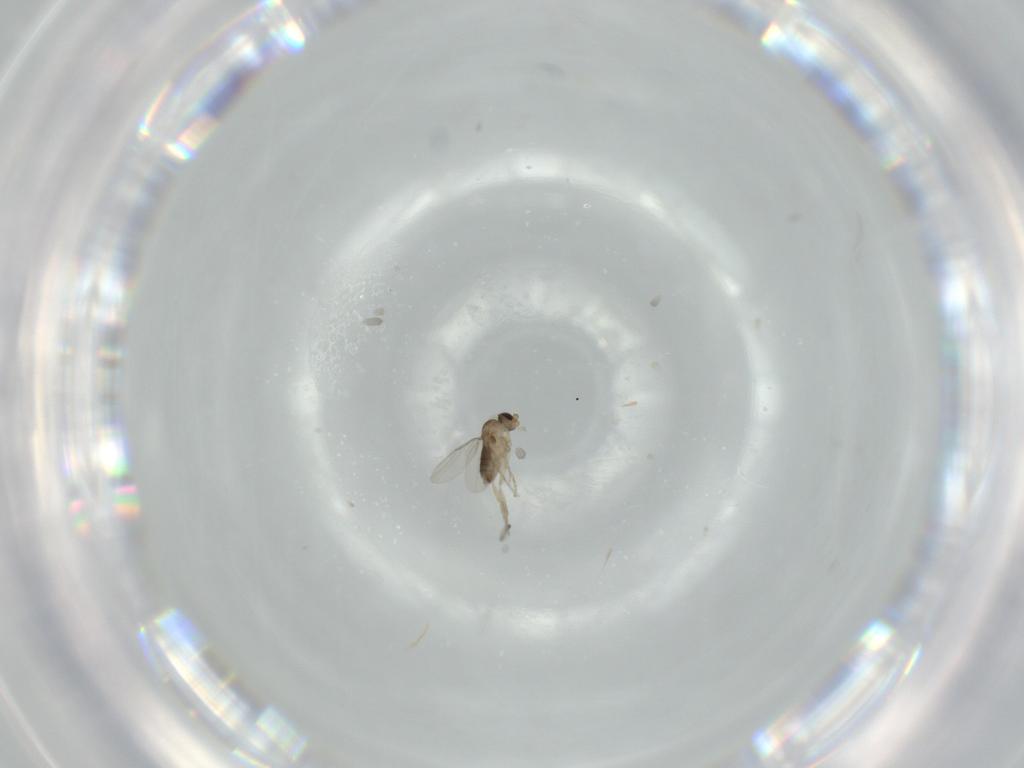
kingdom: Animalia
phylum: Arthropoda
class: Insecta
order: Diptera
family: Phoridae
